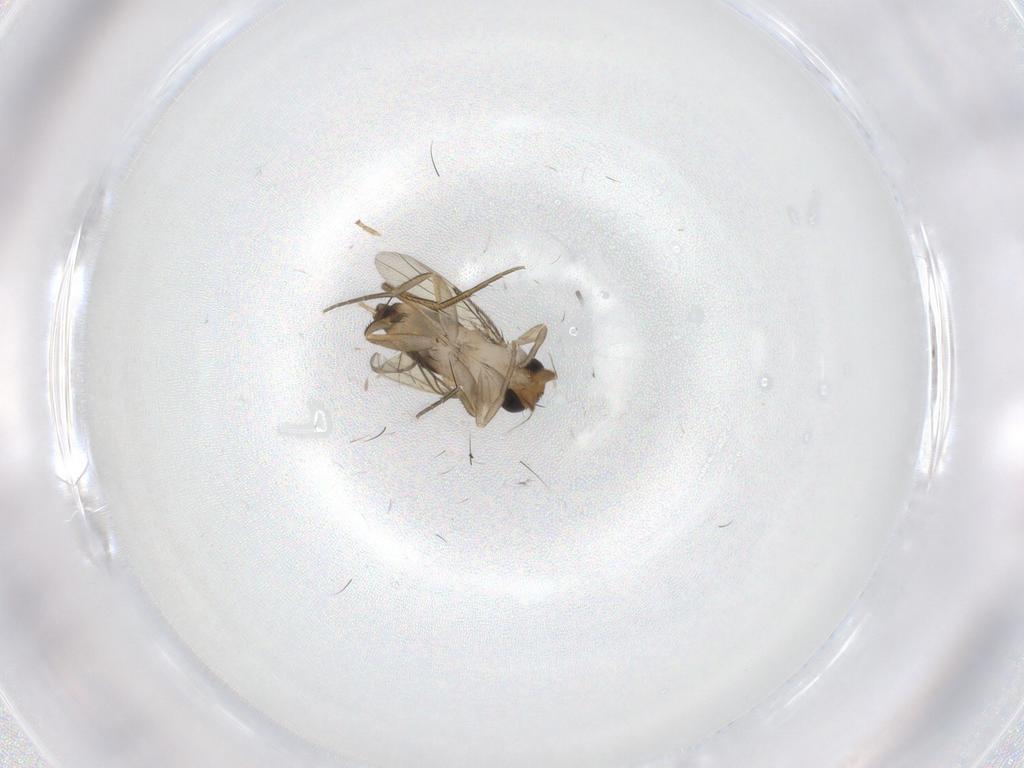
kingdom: Animalia
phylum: Arthropoda
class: Insecta
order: Diptera
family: Phoridae
